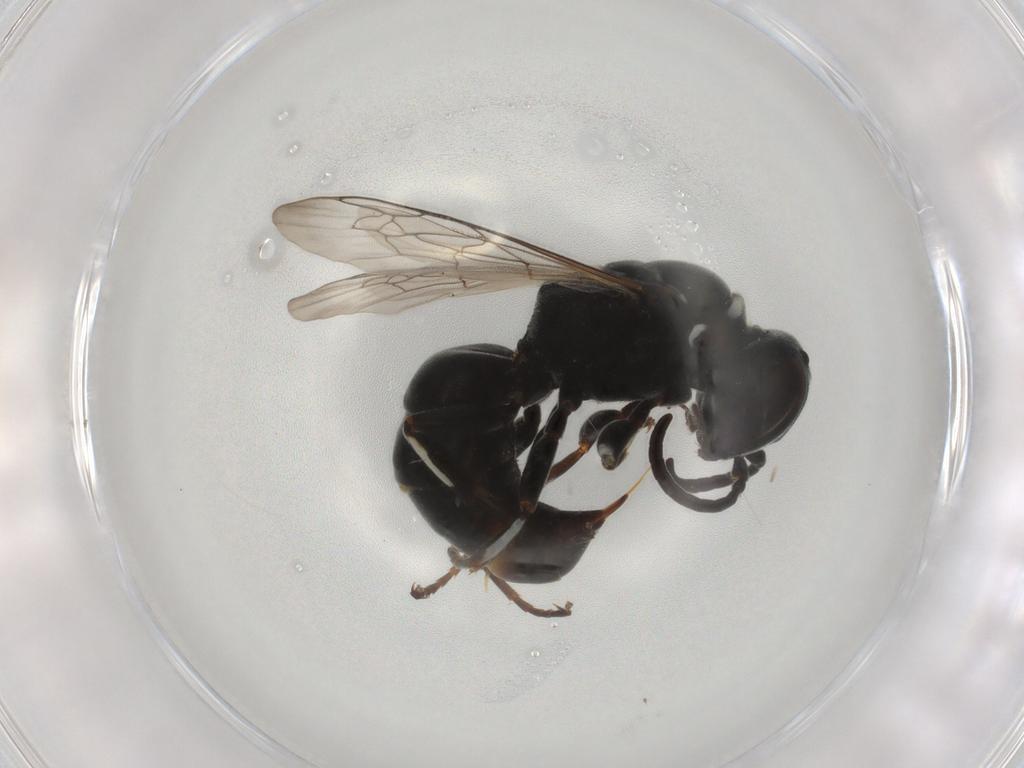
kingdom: Animalia
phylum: Arthropoda
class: Insecta
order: Hymenoptera
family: Crabronidae
